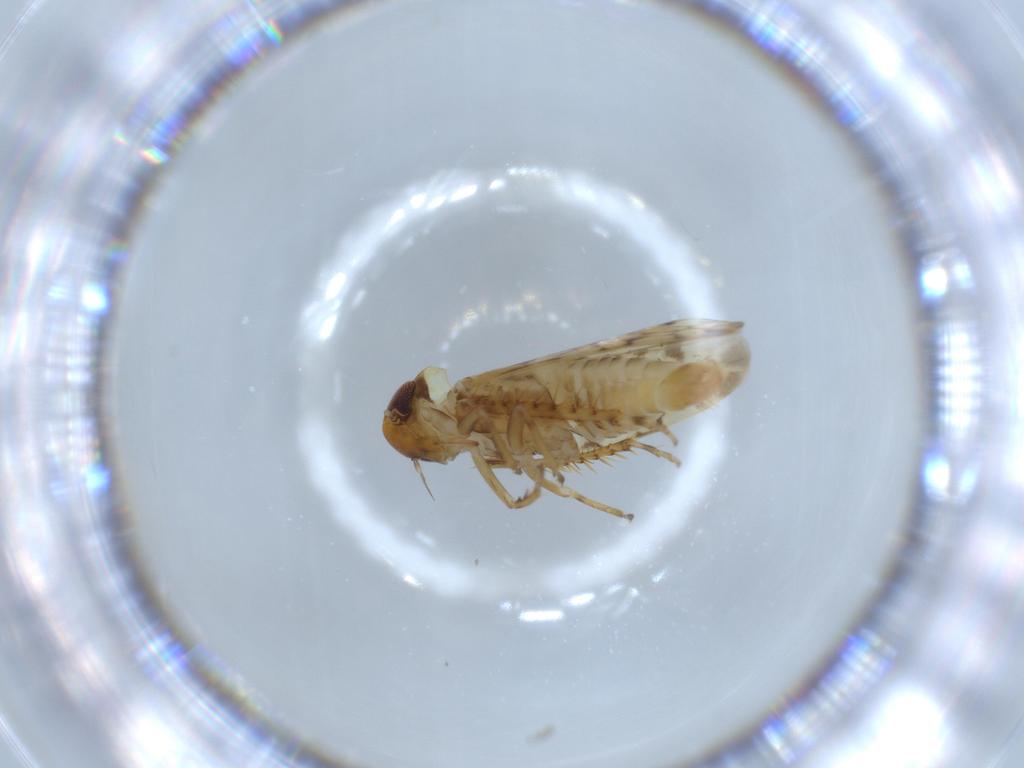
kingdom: Animalia
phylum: Arthropoda
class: Insecta
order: Hemiptera
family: Cicadellidae
